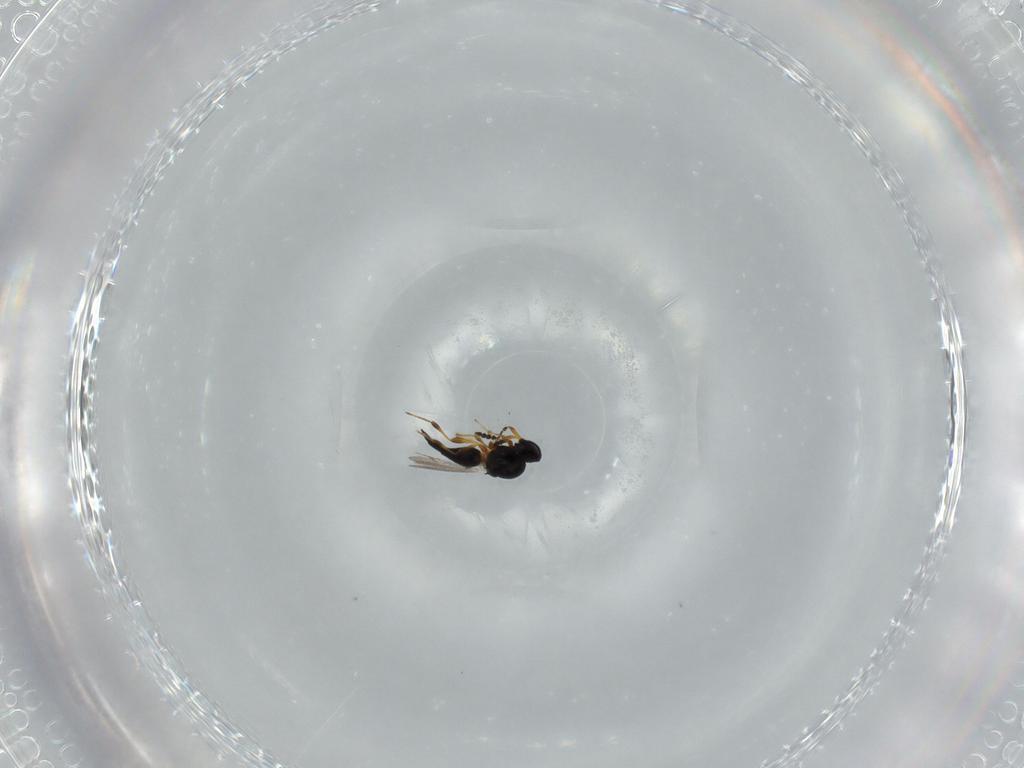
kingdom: Animalia
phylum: Arthropoda
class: Insecta
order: Hymenoptera
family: Platygastridae
